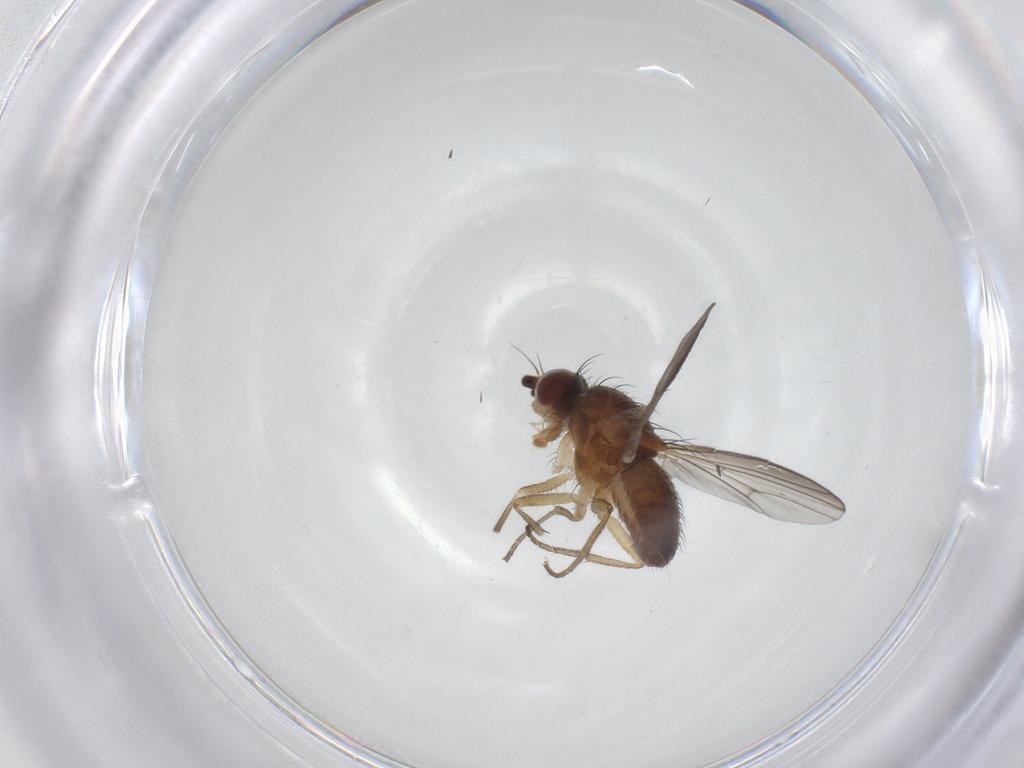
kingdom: Animalia
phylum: Arthropoda
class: Insecta
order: Diptera
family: Heleomyzidae
